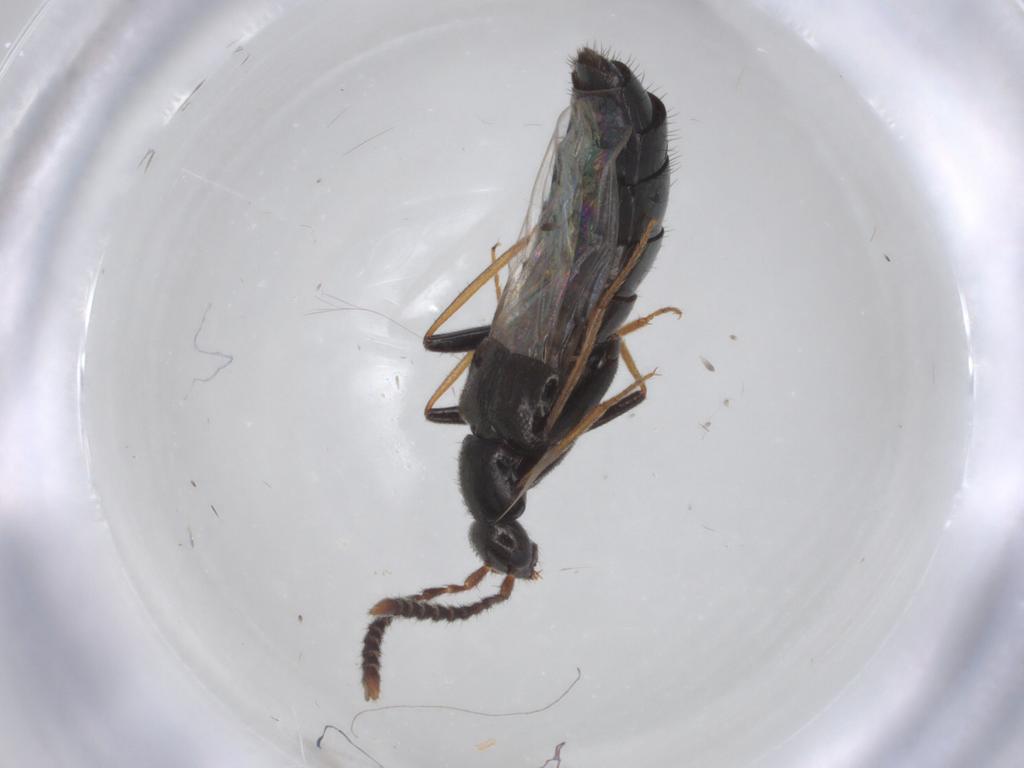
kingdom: Animalia
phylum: Arthropoda
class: Insecta
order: Coleoptera
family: Staphylinidae
